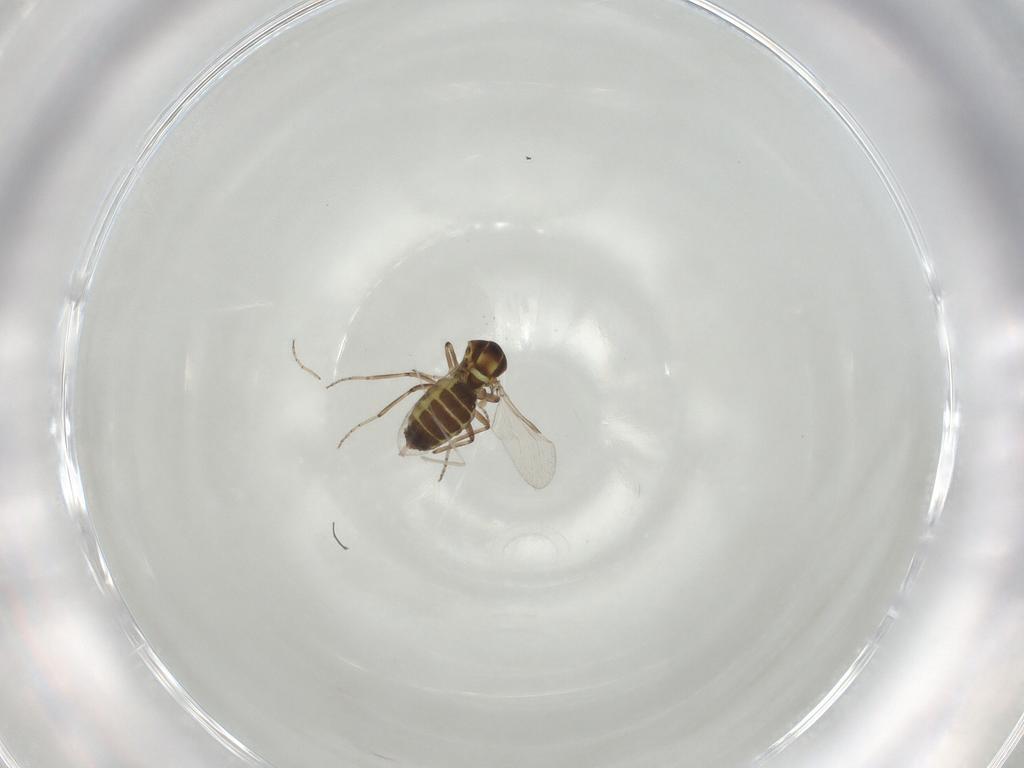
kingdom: Animalia
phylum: Arthropoda
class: Insecta
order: Diptera
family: Ceratopogonidae
